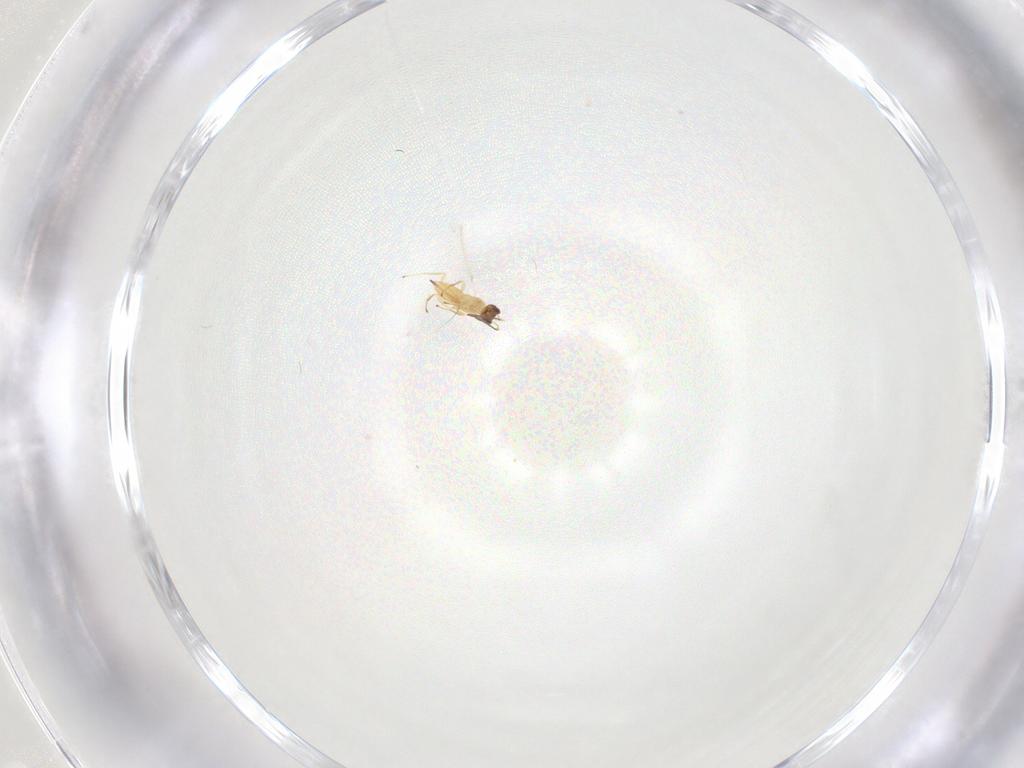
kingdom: Animalia
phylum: Arthropoda
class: Insecta
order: Hymenoptera
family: Mymaridae
